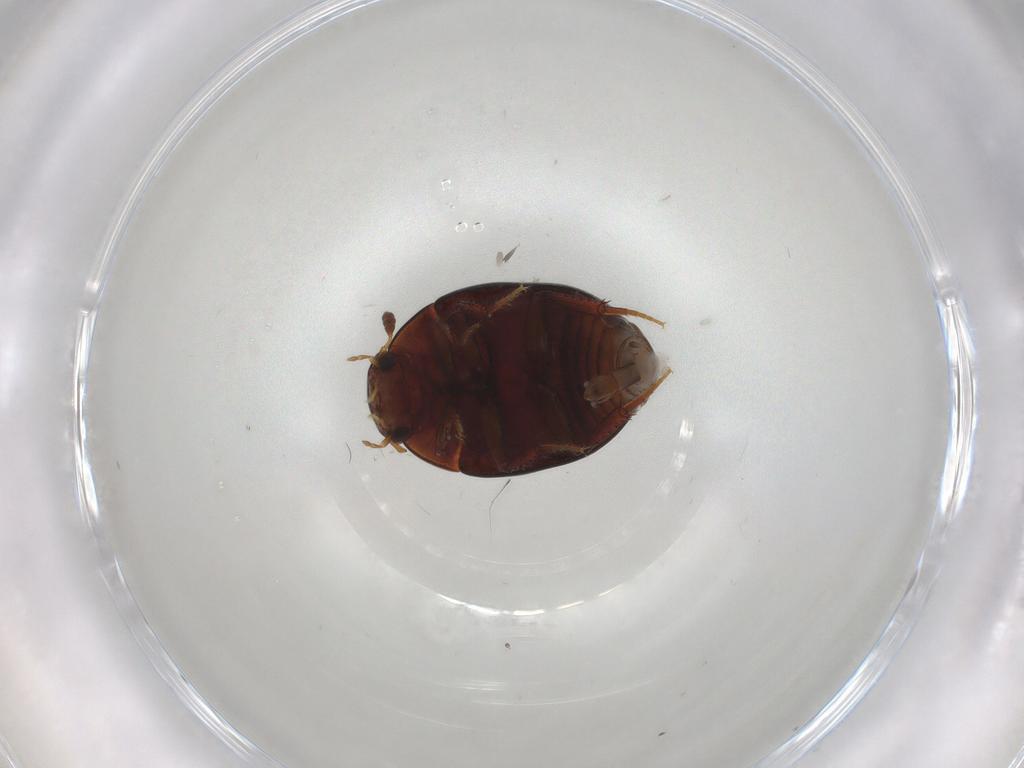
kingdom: Animalia
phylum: Arthropoda
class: Insecta
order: Coleoptera
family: Hydrophilidae
